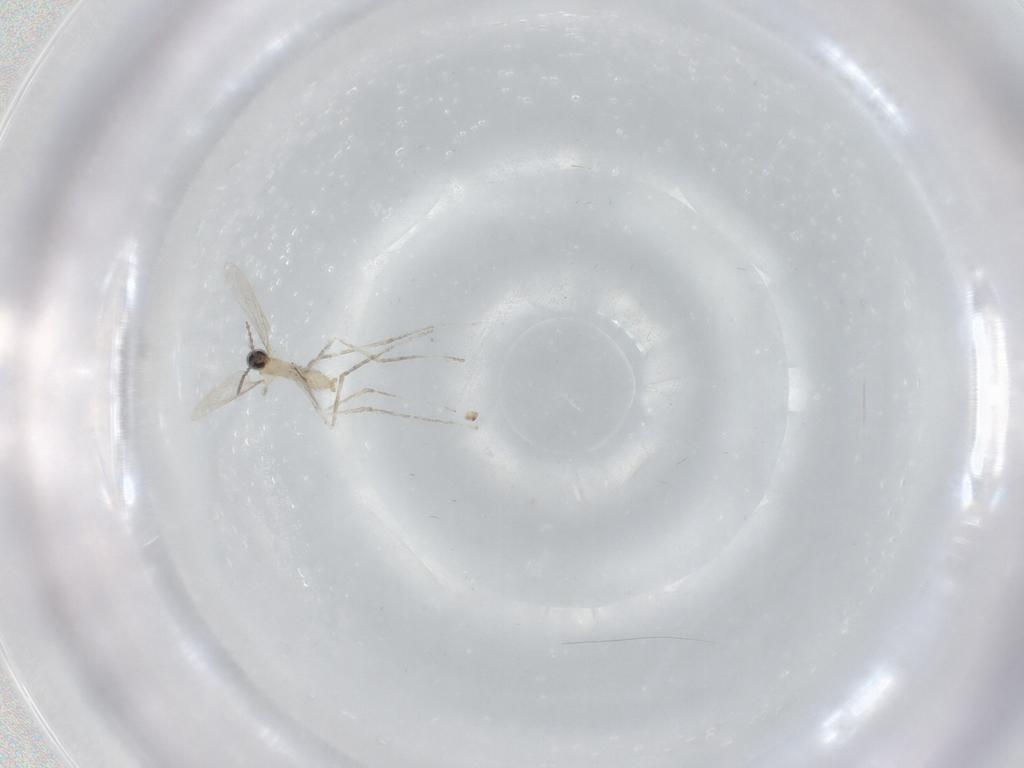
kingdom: Animalia
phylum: Arthropoda
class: Insecta
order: Diptera
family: Cecidomyiidae
